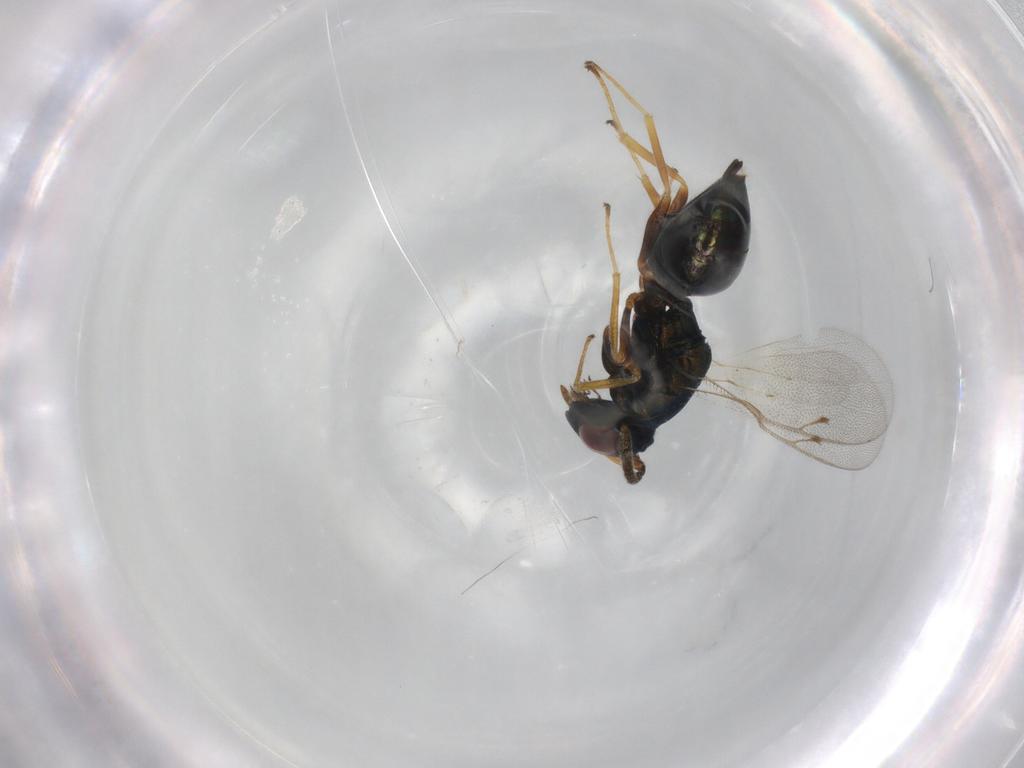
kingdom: Animalia
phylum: Arthropoda
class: Insecta
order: Hymenoptera
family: Pteromalidae
